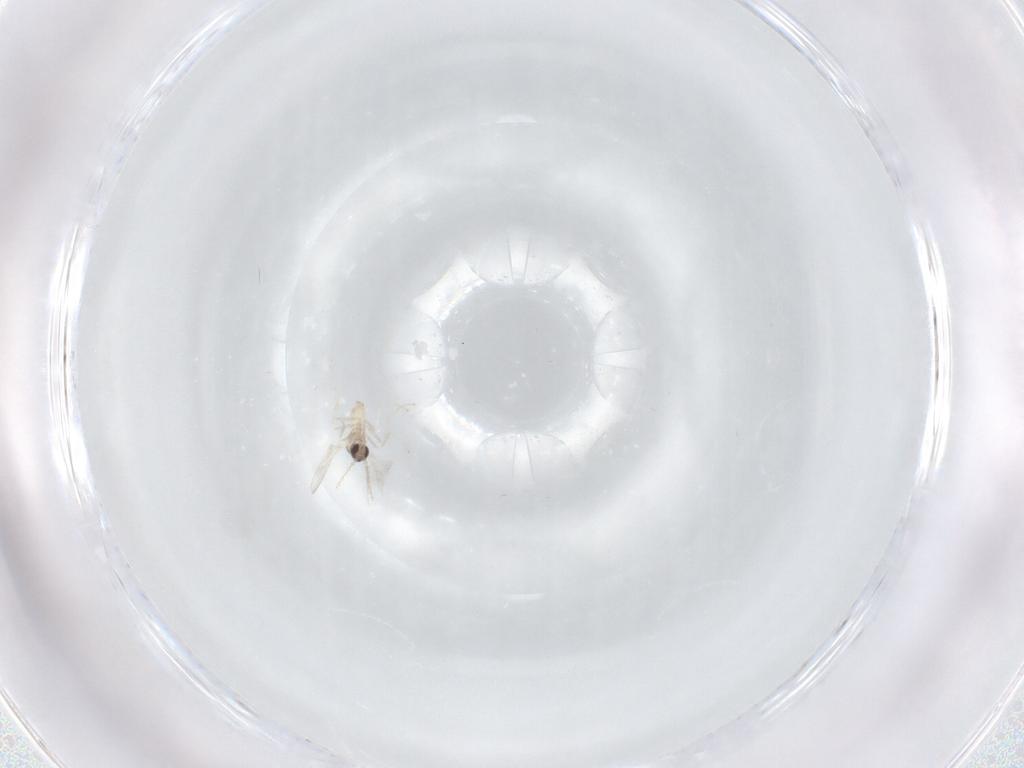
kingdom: Animalia
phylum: Arthropoda
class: Insecta
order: Diptera
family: Cecidomyiidae
